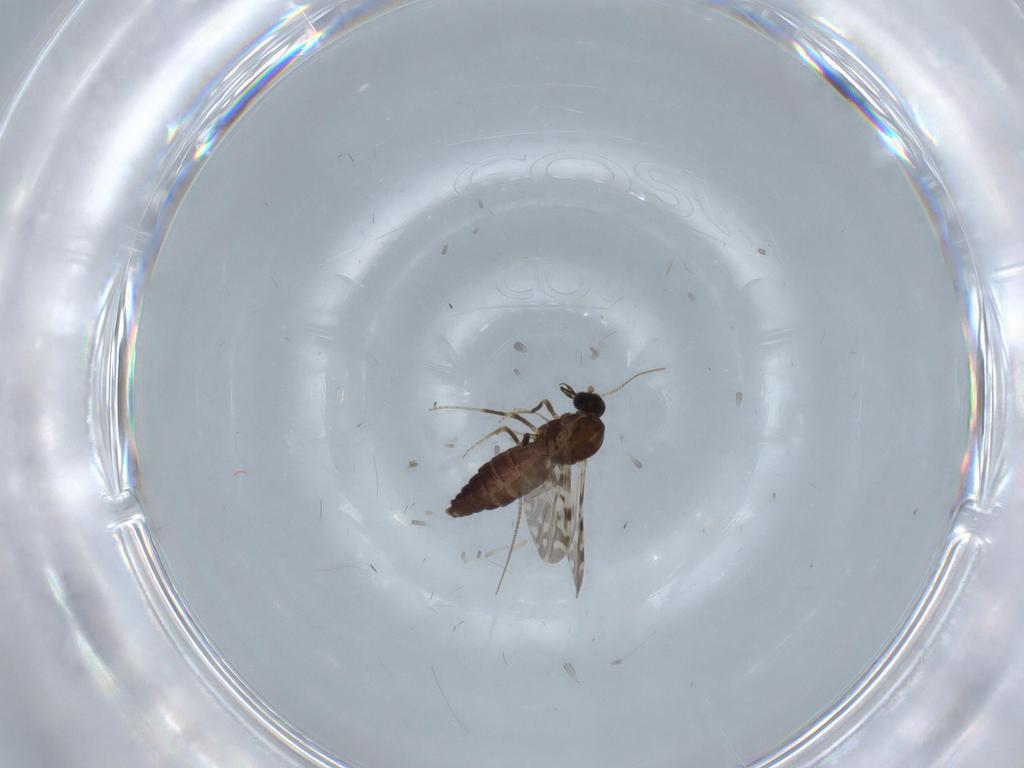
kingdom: Animalia
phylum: Arthropoda
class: Insecta
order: Diptera
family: Ceratopogonidae
